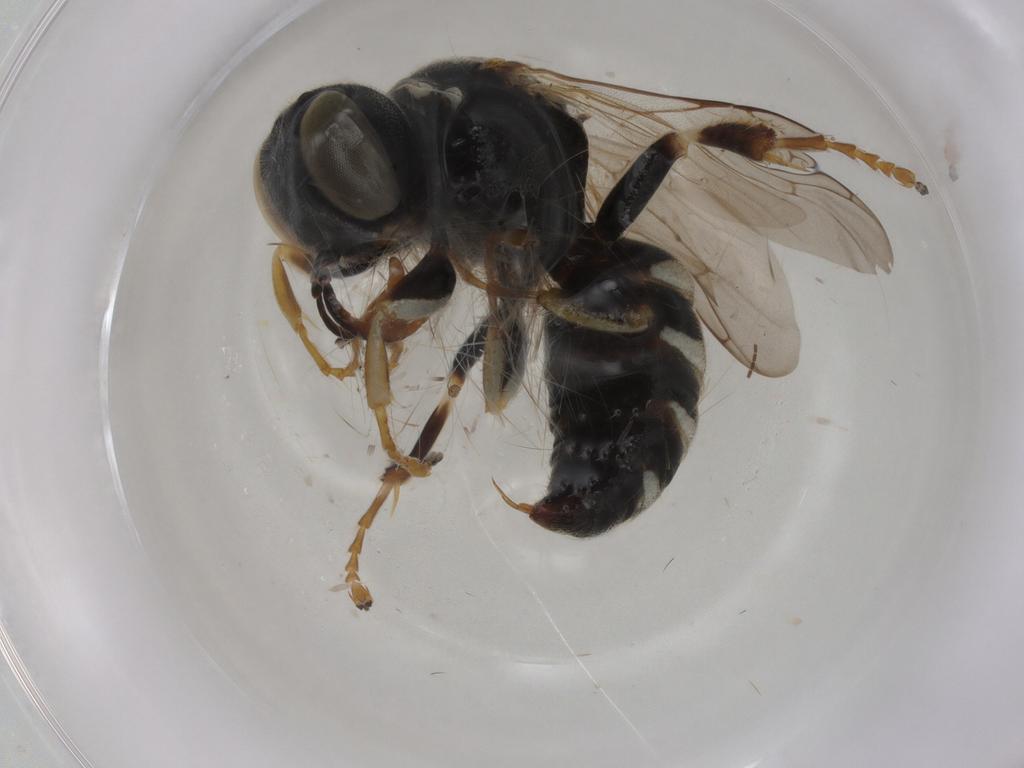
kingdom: Animalia
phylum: Arthropoda
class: Insecta
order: Hymenoptera
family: Crabronidae
